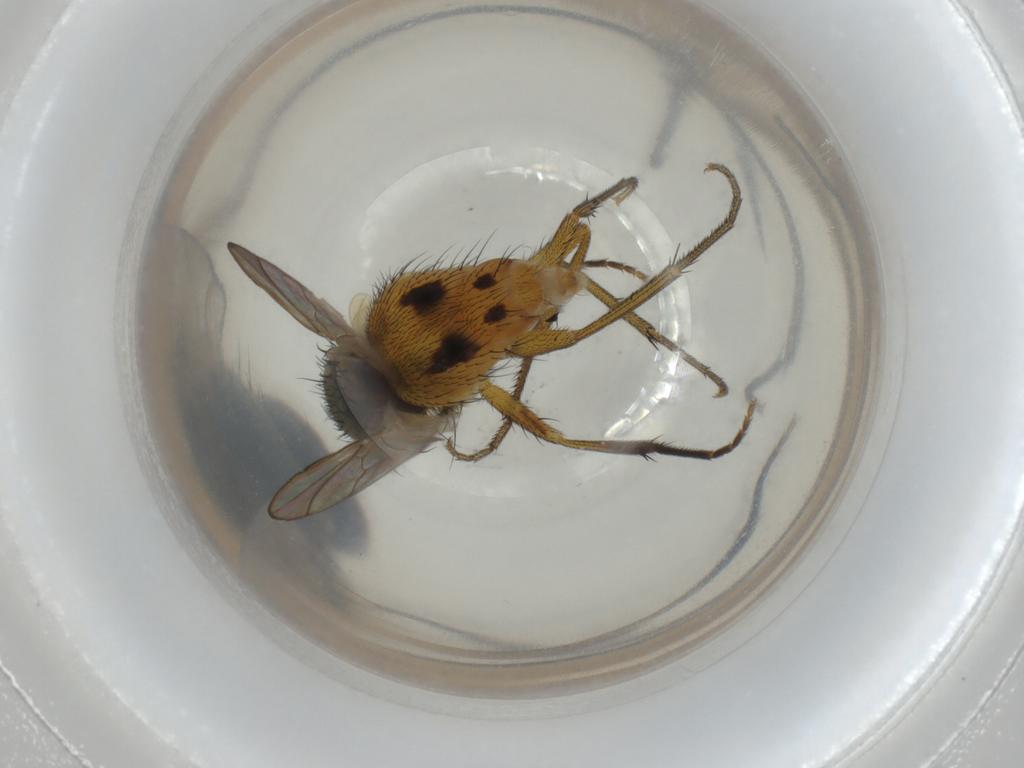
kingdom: Animalia
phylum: Arthropoda
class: Insecta
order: Diptera
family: Muscidae
